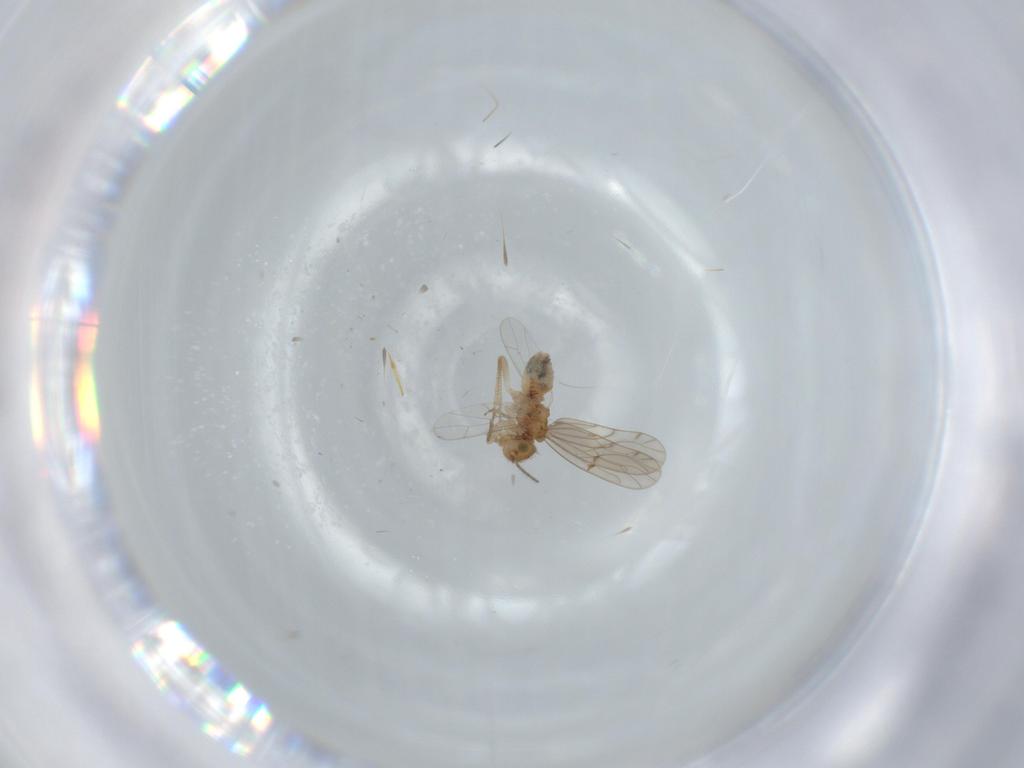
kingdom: Animalia
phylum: Arthropoda
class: Insecta
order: Psocodea
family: Ectopsocidae
